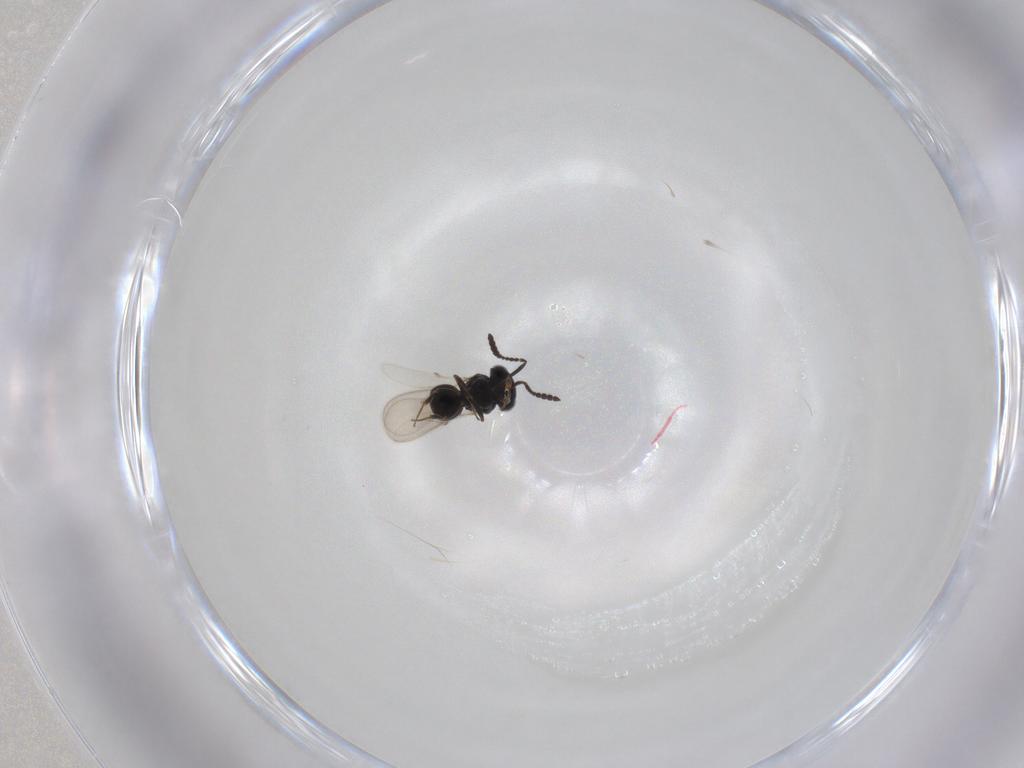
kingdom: Animalia
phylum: Arthropoda
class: Insecta
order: Hymenoptera
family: Scelionidae
